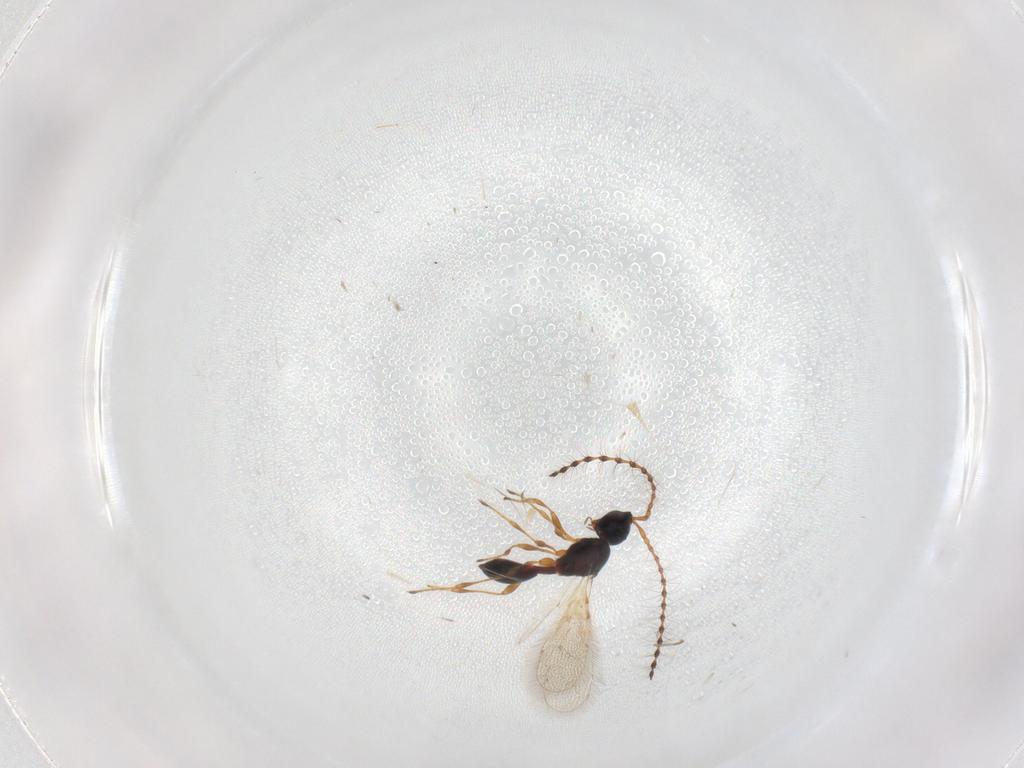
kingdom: Animalia
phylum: Arthropoda
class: Insecta
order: Hymenoptera
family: Diapriidae
